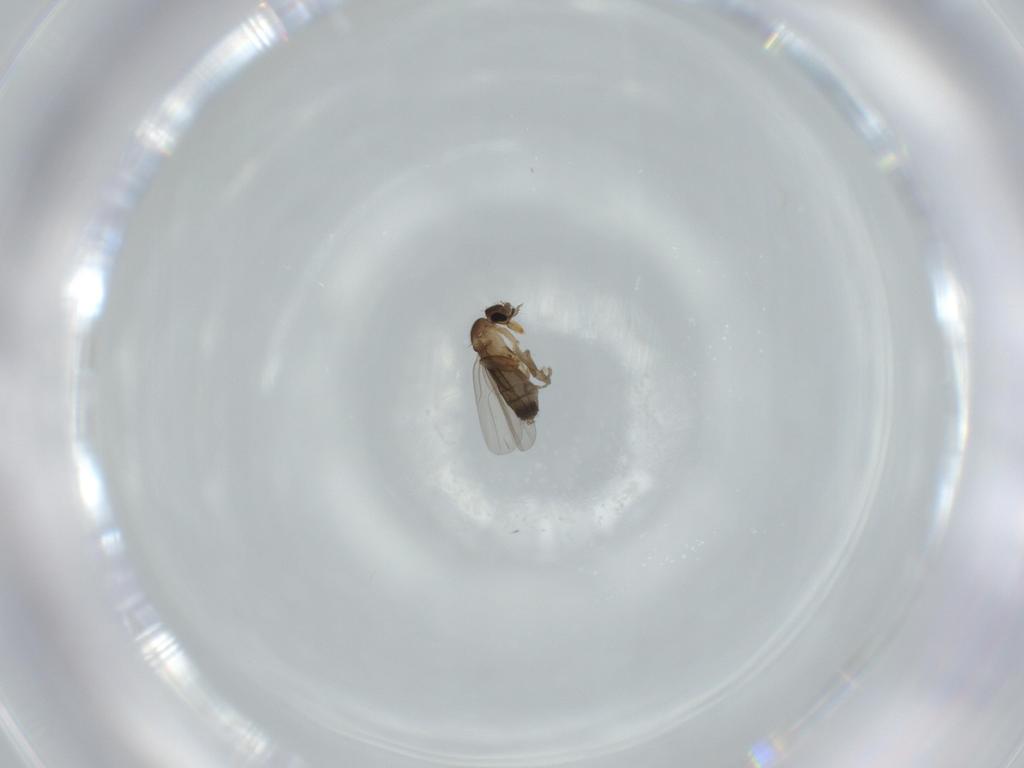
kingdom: Animalia
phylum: Arthropoda
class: Insecta
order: Diptera
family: Phoridae
